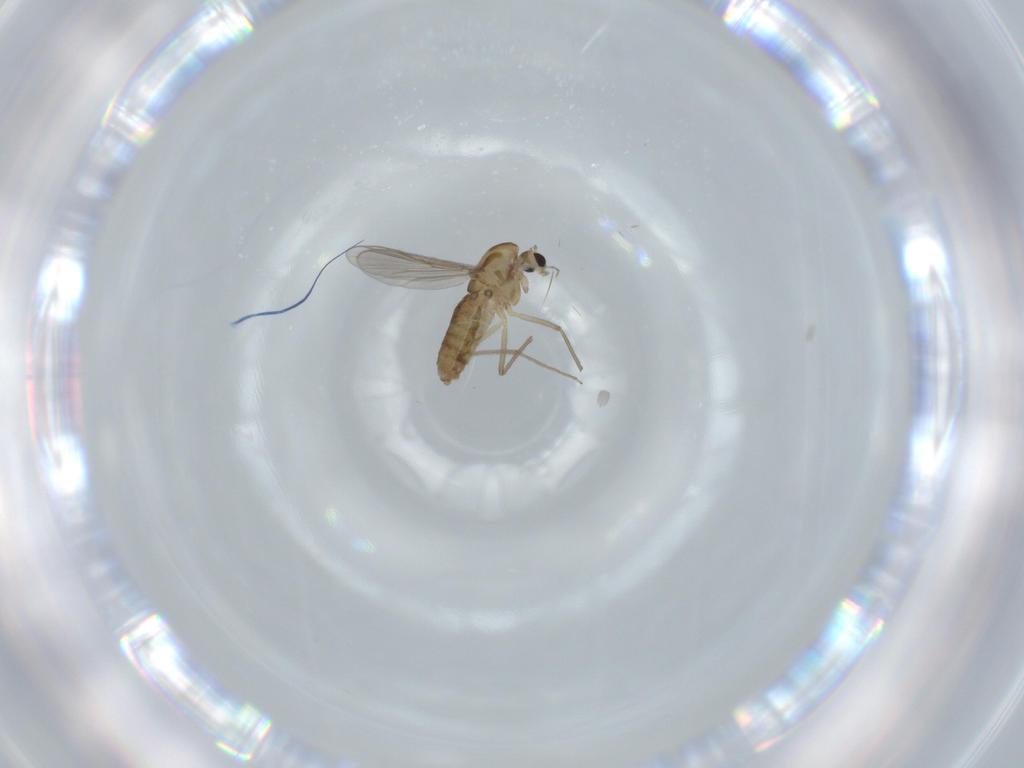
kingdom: Animalia
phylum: Arthropoda
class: Insecta
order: Diptera
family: Chironomidae
